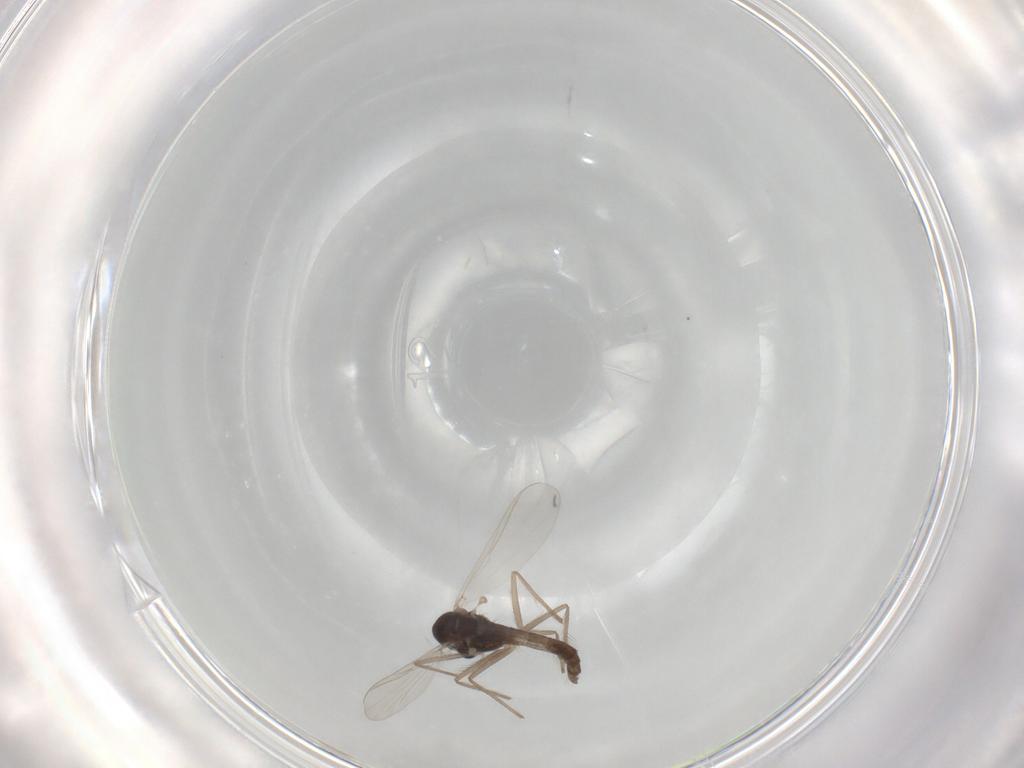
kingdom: Animalia
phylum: Arthropoda
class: Insecta
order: Diptera
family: Chironomidae
